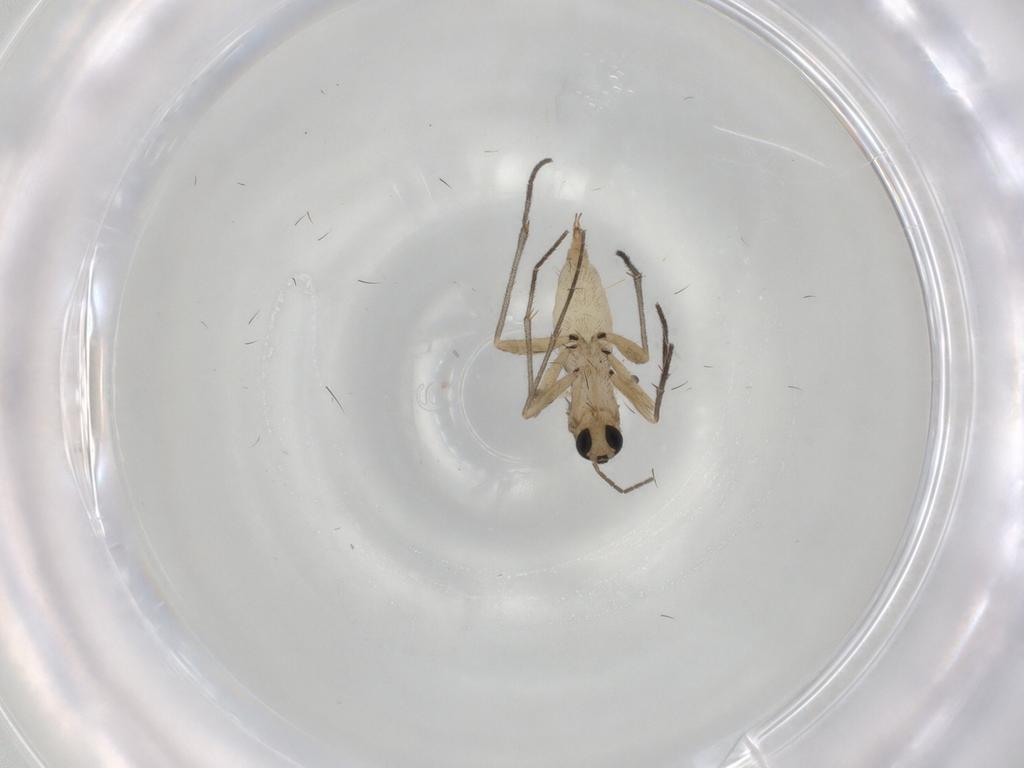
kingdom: Animalia
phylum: Arthropoda
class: Insecta
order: Diptera
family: Sciaridae
